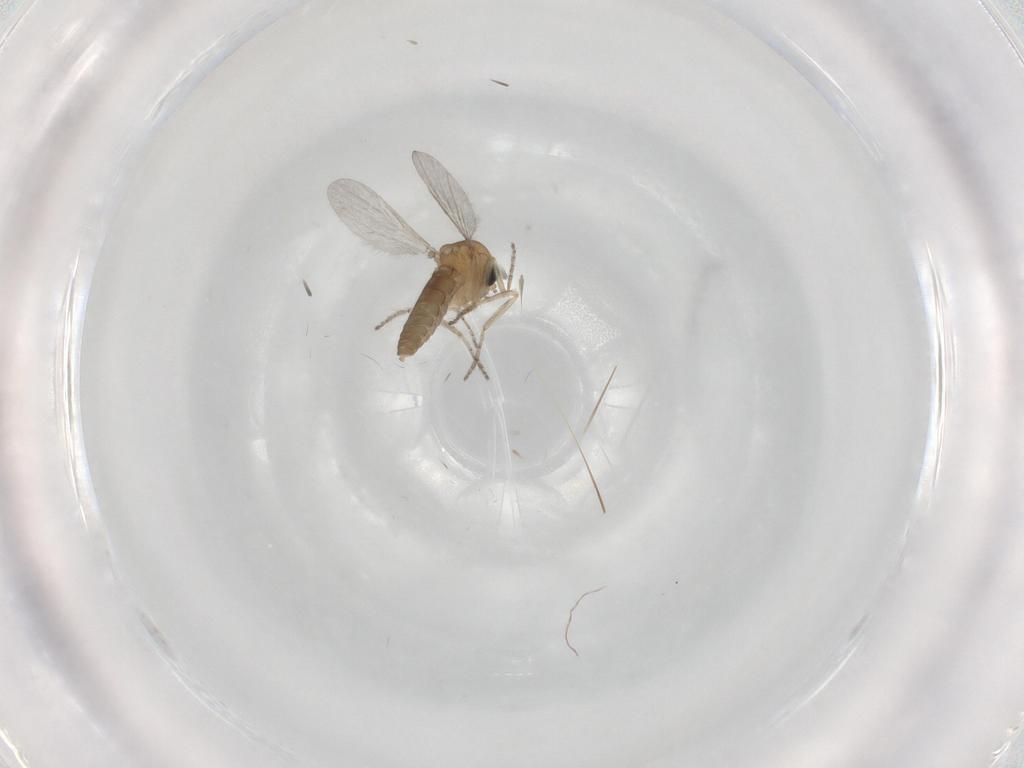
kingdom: Animalia
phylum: Arthropoda
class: Insecta
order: Diptera
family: Ceratopogonidae
